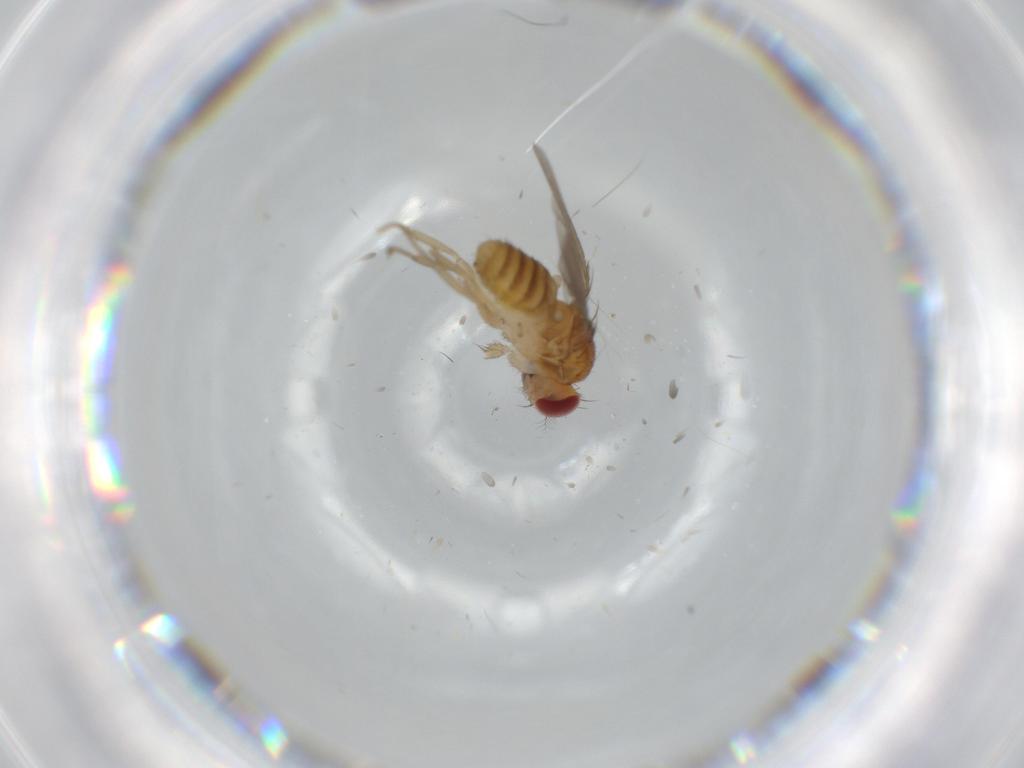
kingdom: Animalia
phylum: Arthropoda
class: Insecta
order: Diptera
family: Drosophilidae
